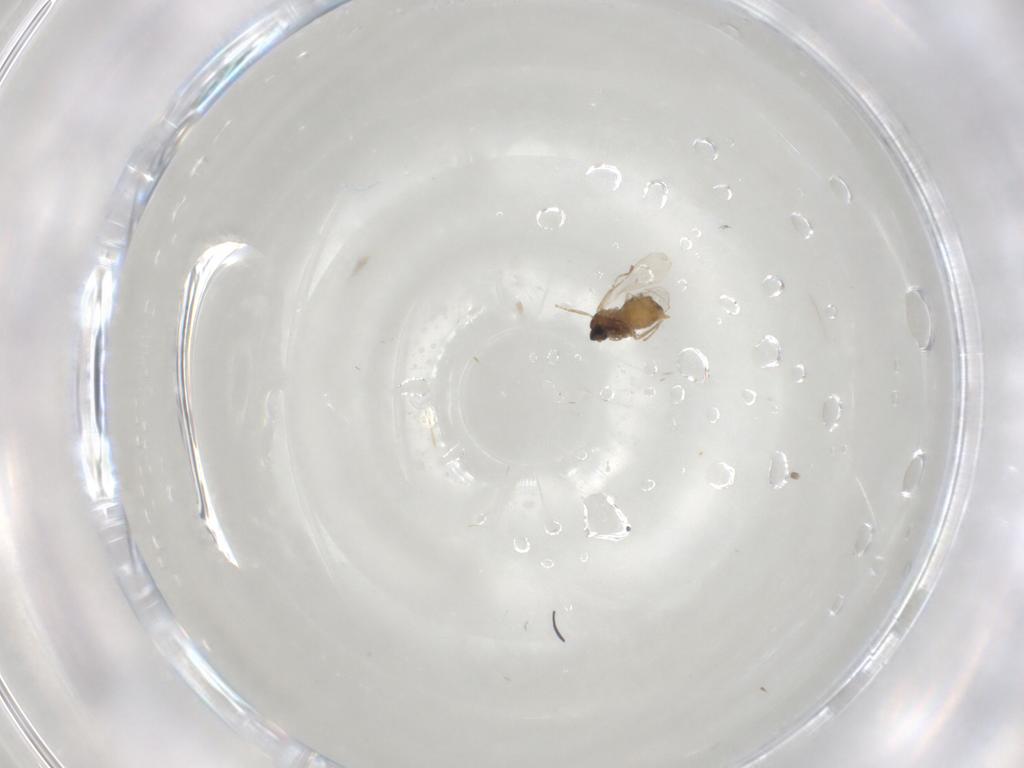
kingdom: Animalia
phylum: Arthropoda
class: Insecta
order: Diptera
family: Cecidomyiidae
